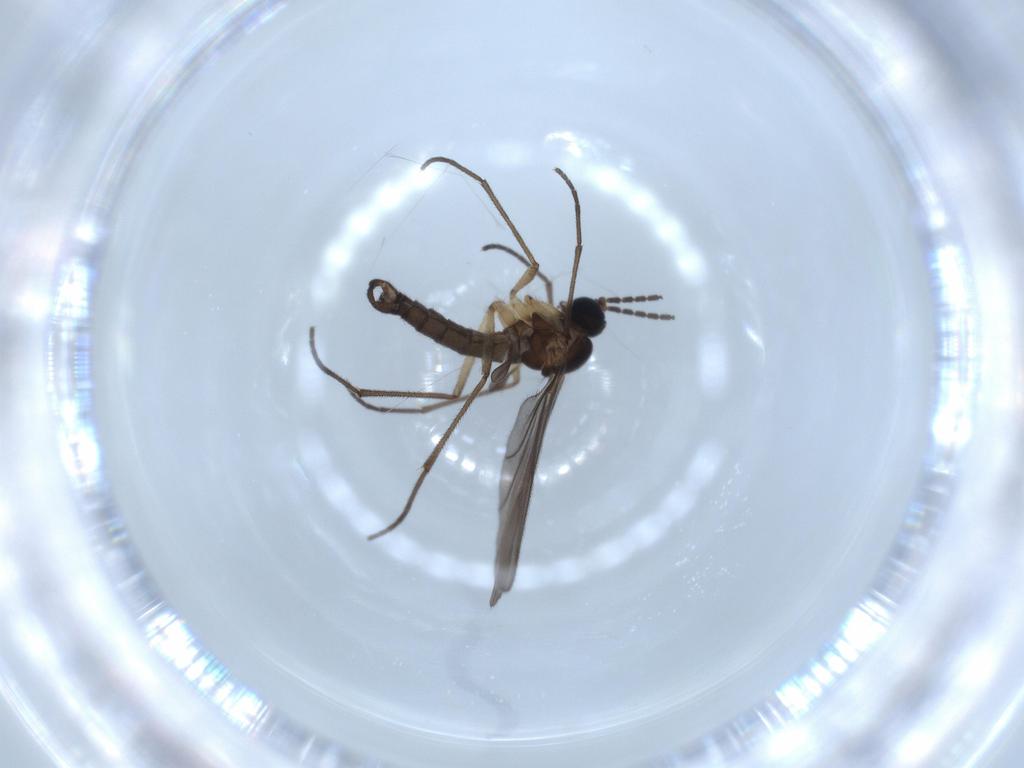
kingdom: Animalia
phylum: Arthropoda
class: Insecta
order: Diptera
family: Sciaridae
